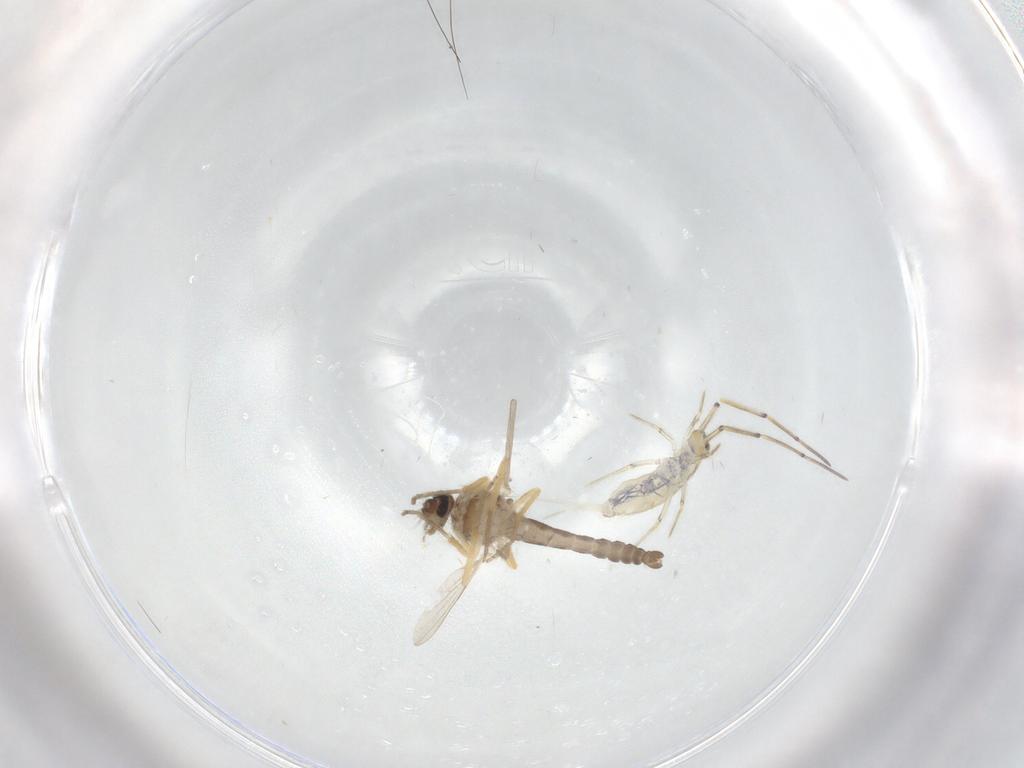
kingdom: Animalia
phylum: Arthropoda
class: Insecta
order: Diptera
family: Ceratopogonidae
